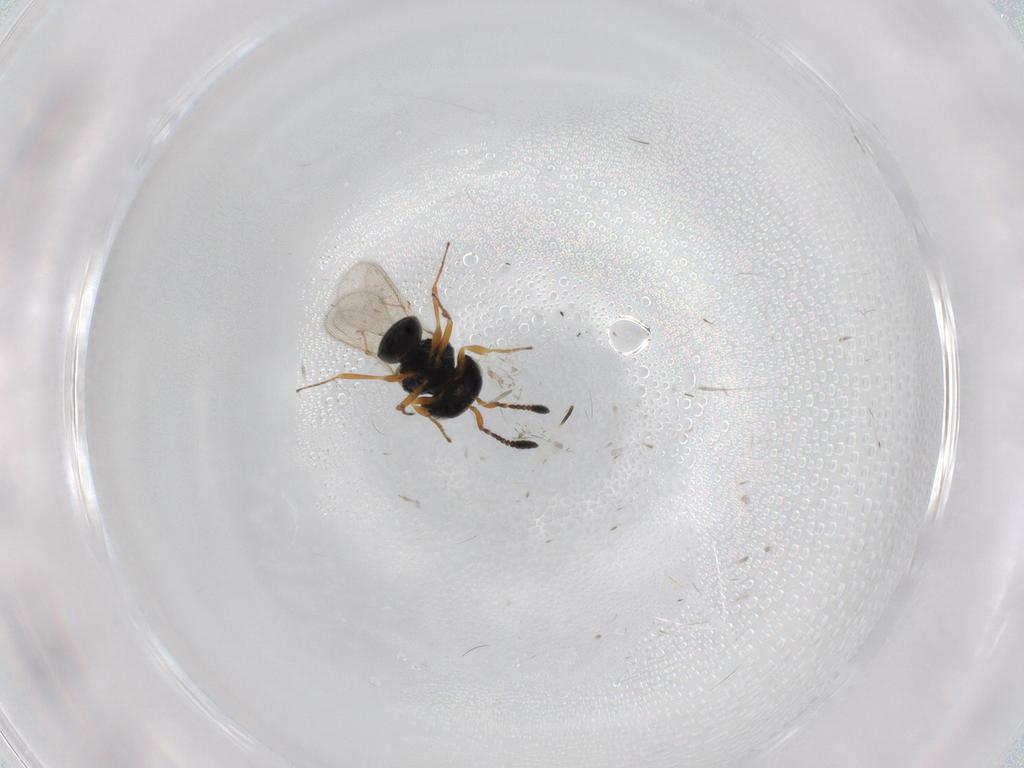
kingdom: Animalia
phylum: Arthropoda
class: Insecta
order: Hymenoptera
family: Scelionidae
